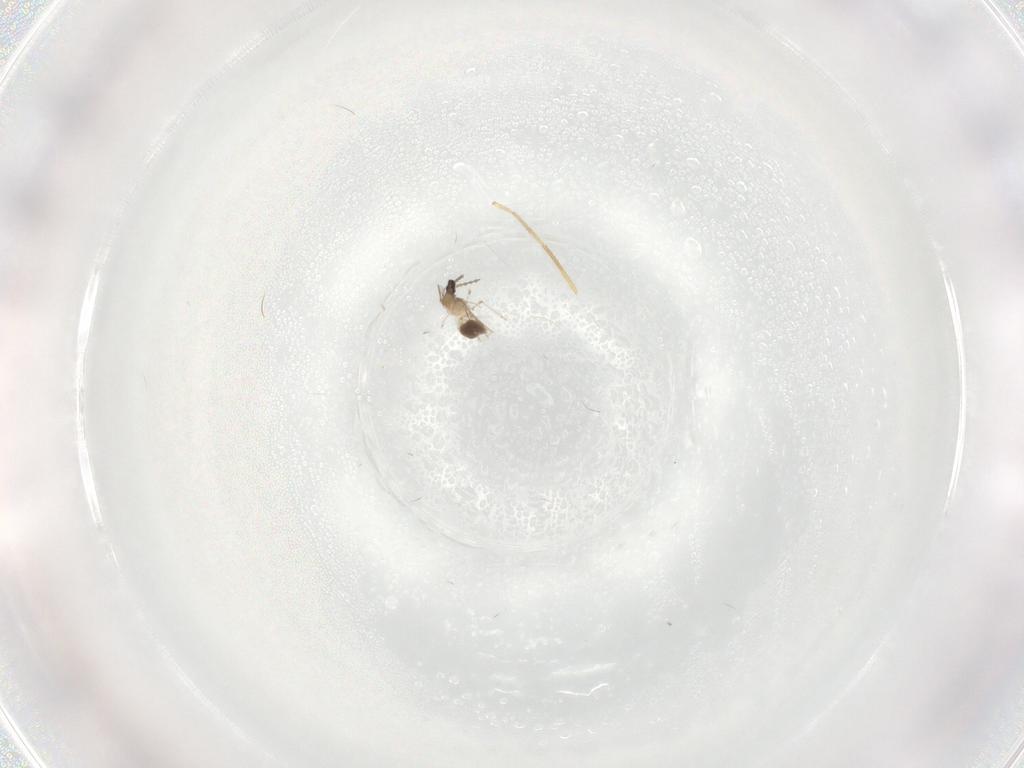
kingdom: Animalia
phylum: Arthropoda
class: Insecta
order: Diptera
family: Cecidomyiidae
